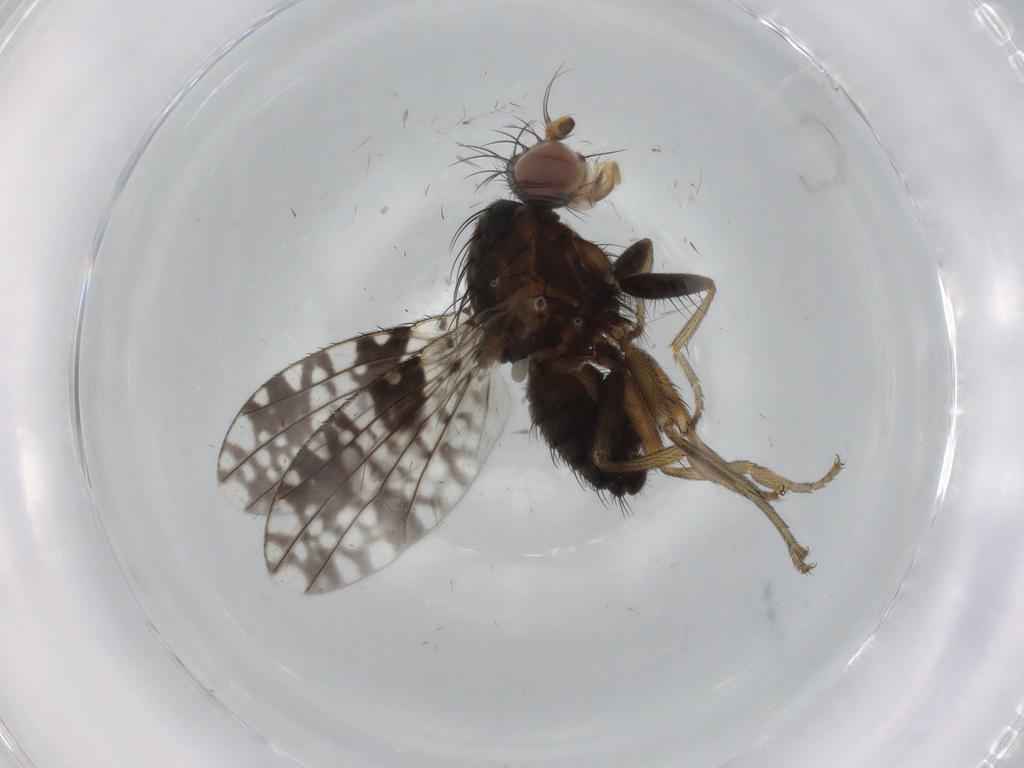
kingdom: Animalia
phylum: Arthropoda
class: Insecta
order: Diptera
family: Tephritidae
